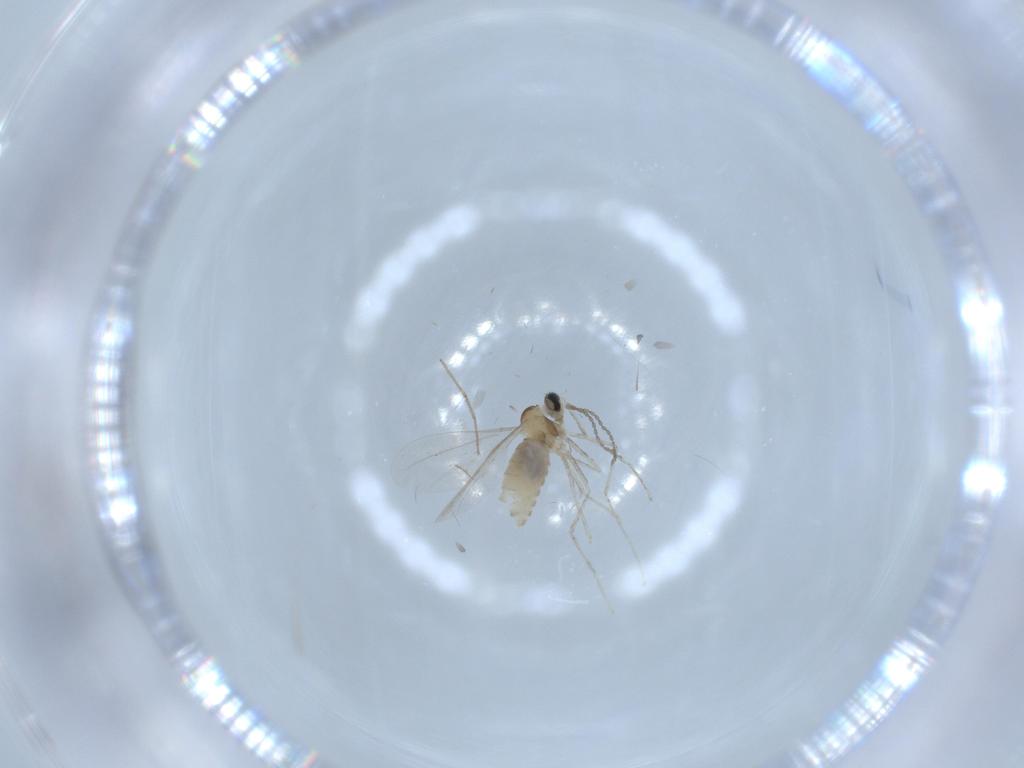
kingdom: Animalia
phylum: Arthropoda
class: Insecta
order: Diptera
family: Cecidomyiidae
